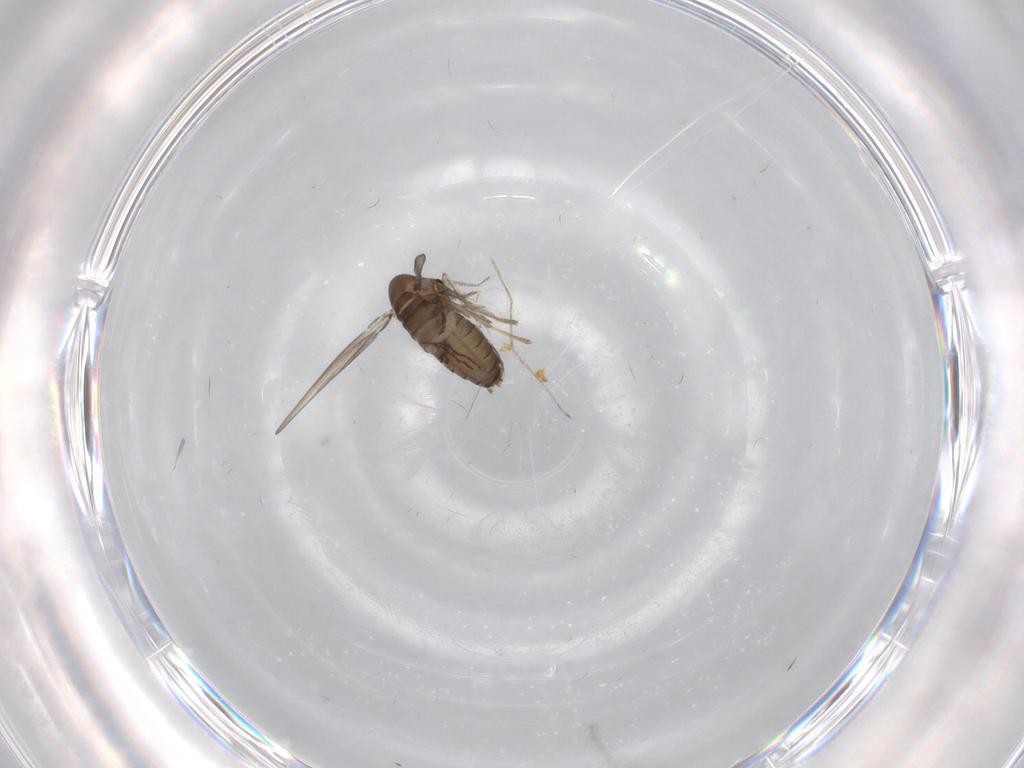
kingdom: Animalia
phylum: Arthropoda
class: Insecta
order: Diptera
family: Psychodidae
